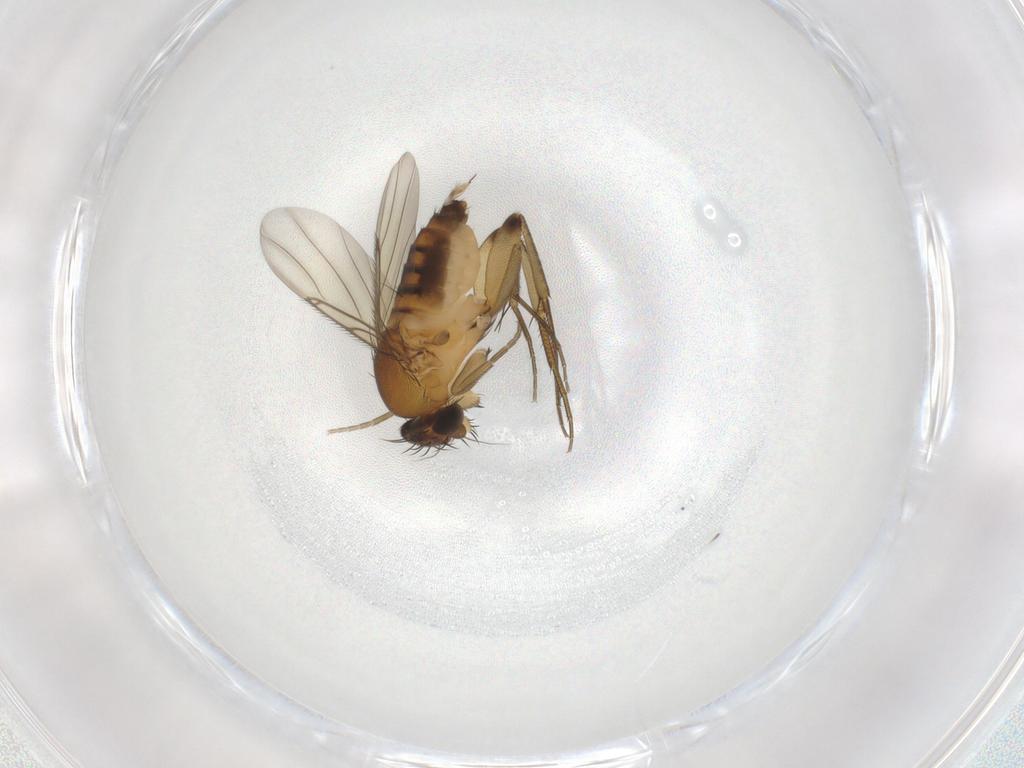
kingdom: Animalia
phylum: Arthropoda
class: Insecta
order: Diptera
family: Phoridae
